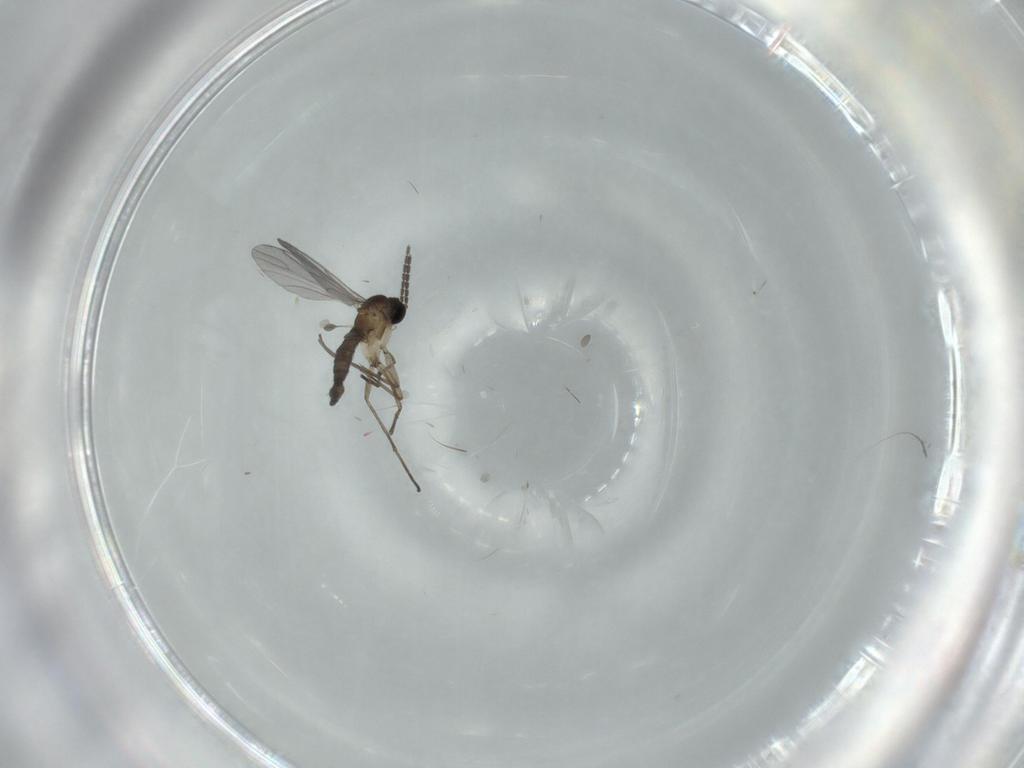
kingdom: Animalia
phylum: Arthropoda
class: Insecta
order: Diptera
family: Sciaridae
